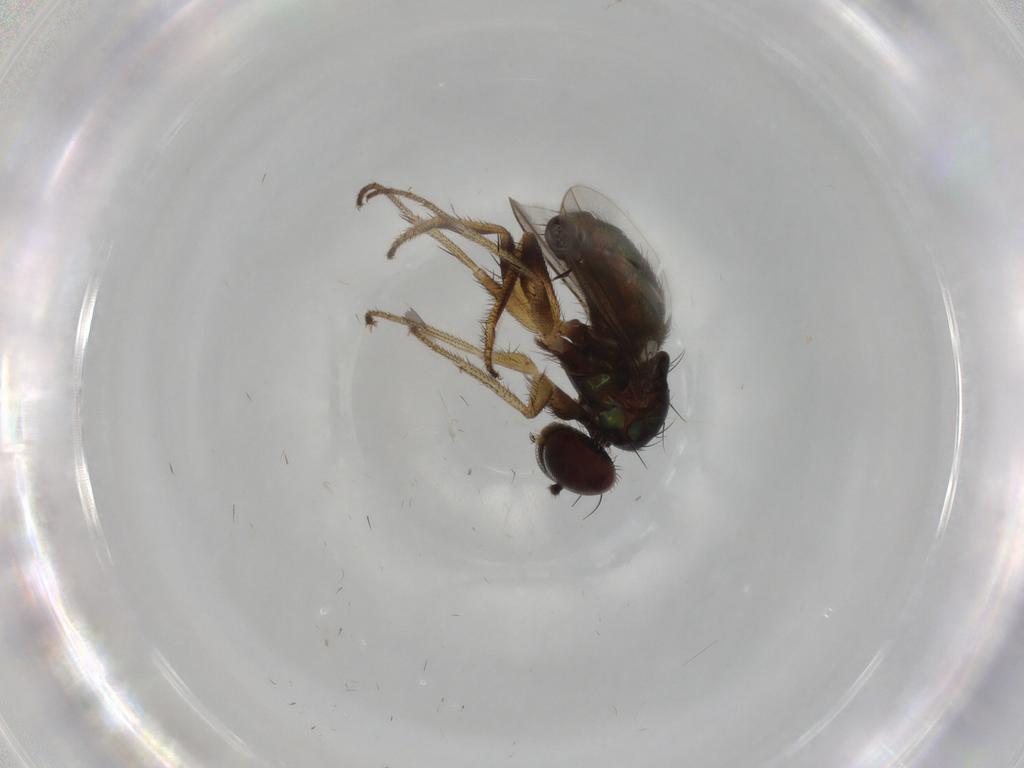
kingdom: Animalia
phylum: Arthropoda
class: Insecta
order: Diptera
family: Dolichopodidae
